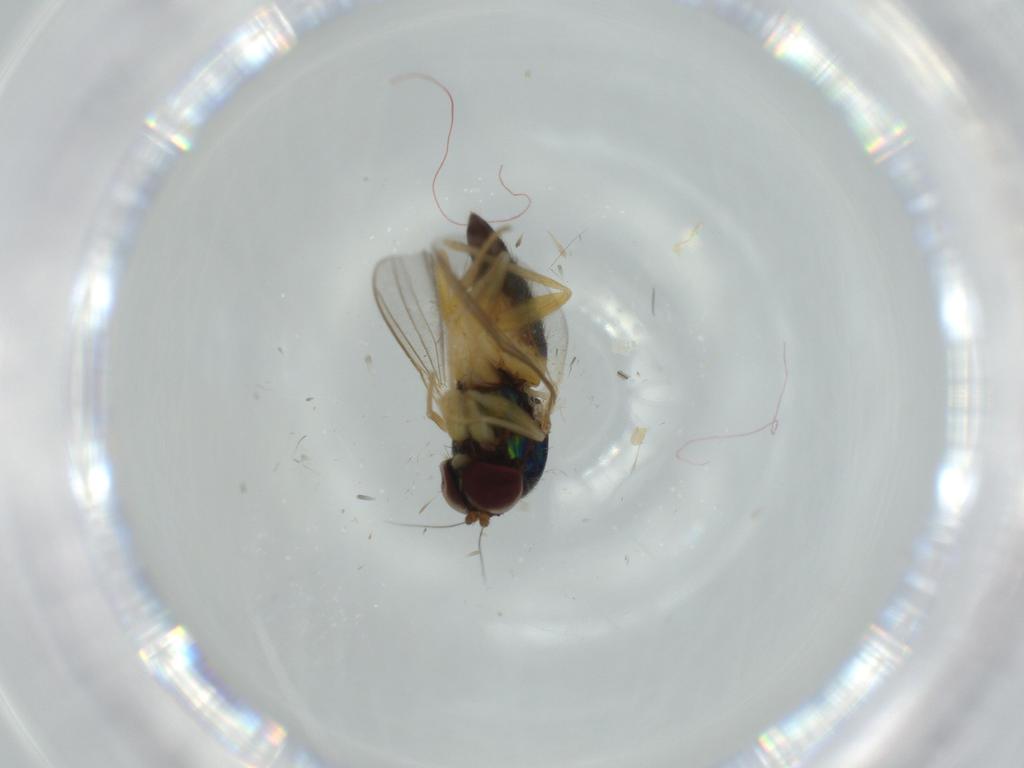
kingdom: Animalia
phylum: Arthropoda
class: Insecta
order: Diptera
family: Dolichopodidae
